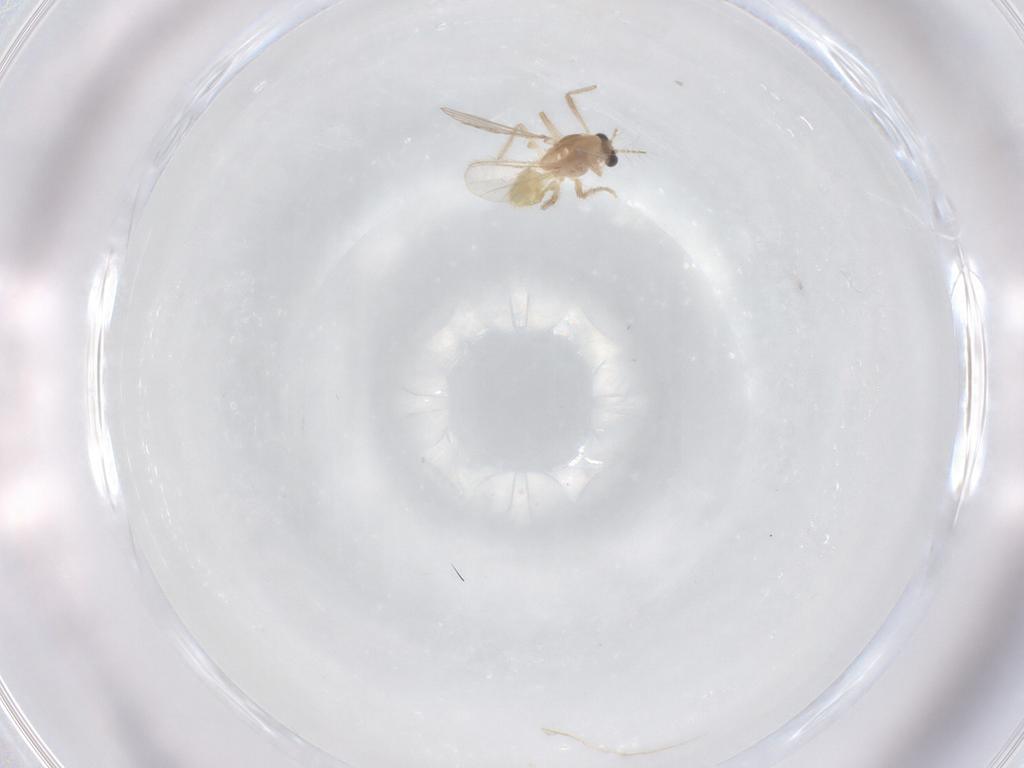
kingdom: Animalia
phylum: Arthropoda
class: Insecta
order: Diptera
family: Chironomidae
